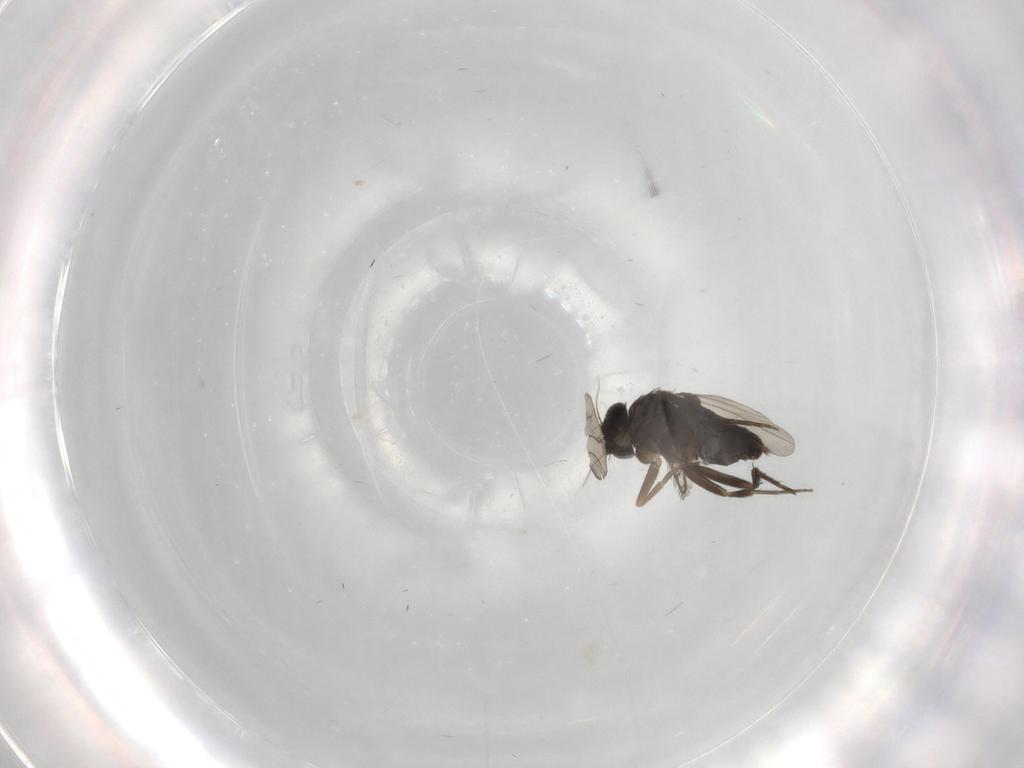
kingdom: Animalia
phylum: Arthropoda
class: Insecta
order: Diptera
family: Phoridae
